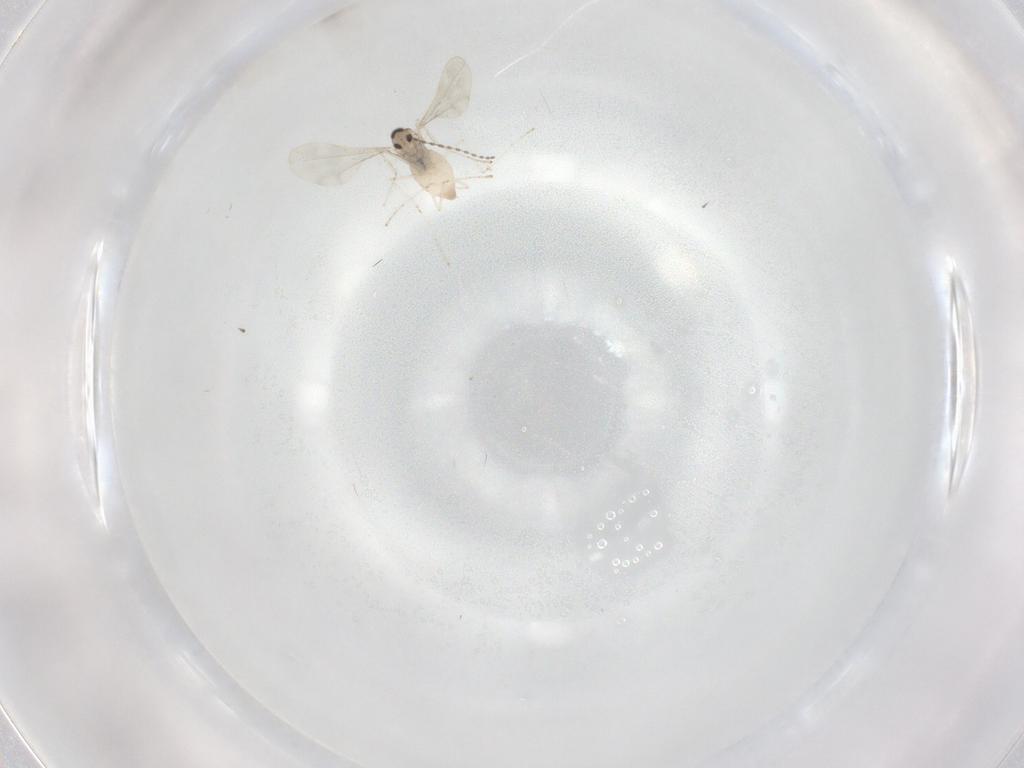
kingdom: Animalia
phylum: Arthropoda
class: Insecta
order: Diptera
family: Cecidomyiidae
